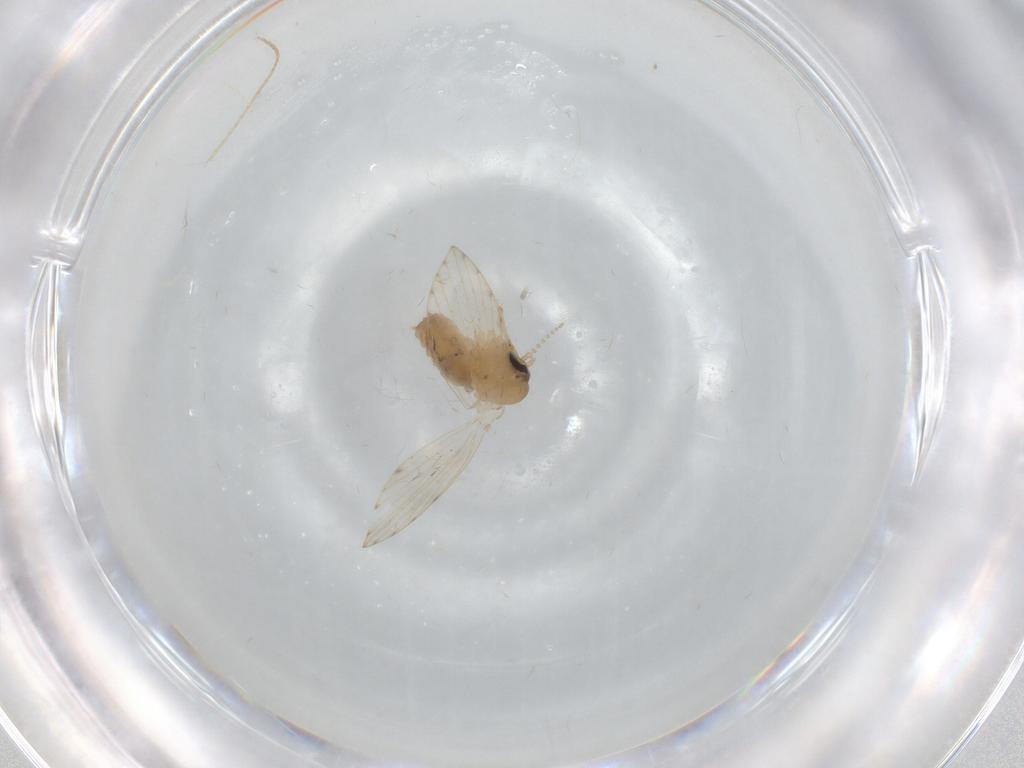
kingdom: Animalia
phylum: Arthropoda
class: Insecta
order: Diptera
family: Psychodidae
